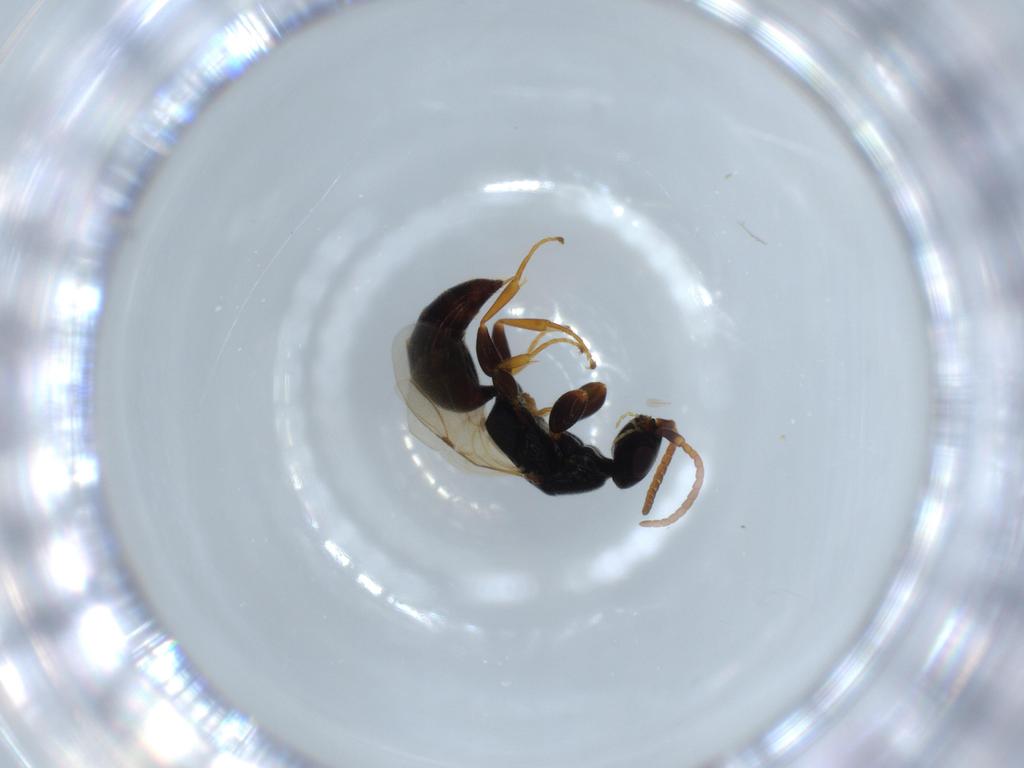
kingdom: Animalia
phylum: Arthropoda
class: Insecta
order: Hymenoptera
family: Bethylidae
